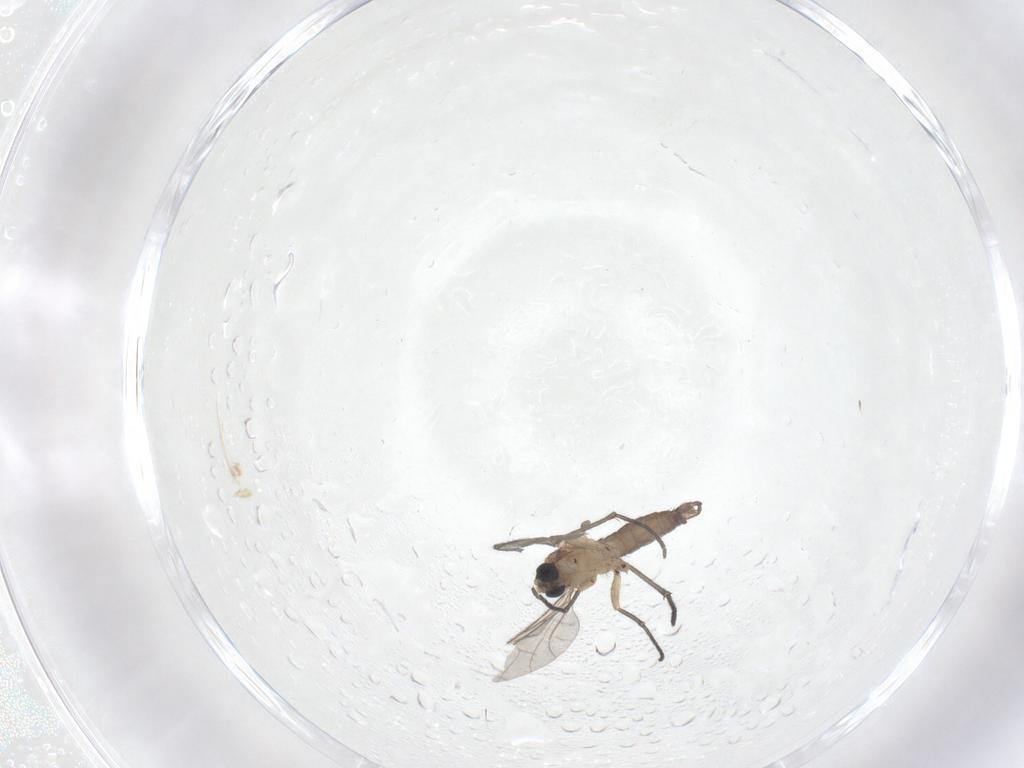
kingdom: Animalia
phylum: Arthropoda
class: Insecta
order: Diptera
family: Sciaridae
